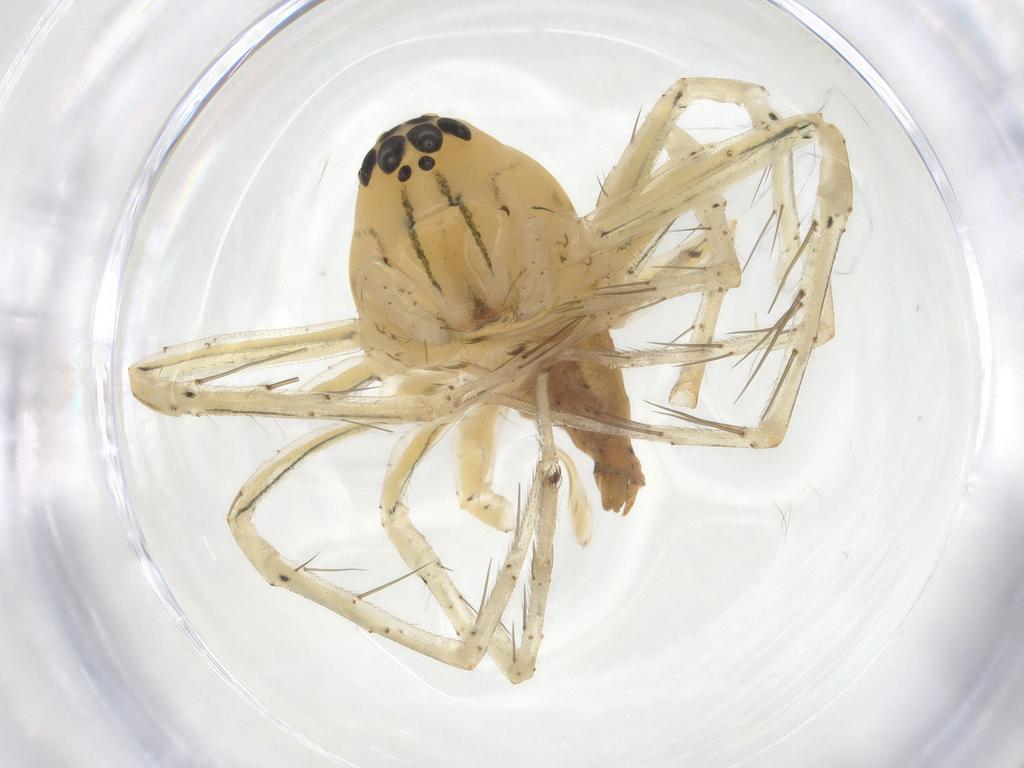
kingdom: Animalia
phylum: Arthropoda
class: Arachnida
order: Araneae
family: Oxyopidae
